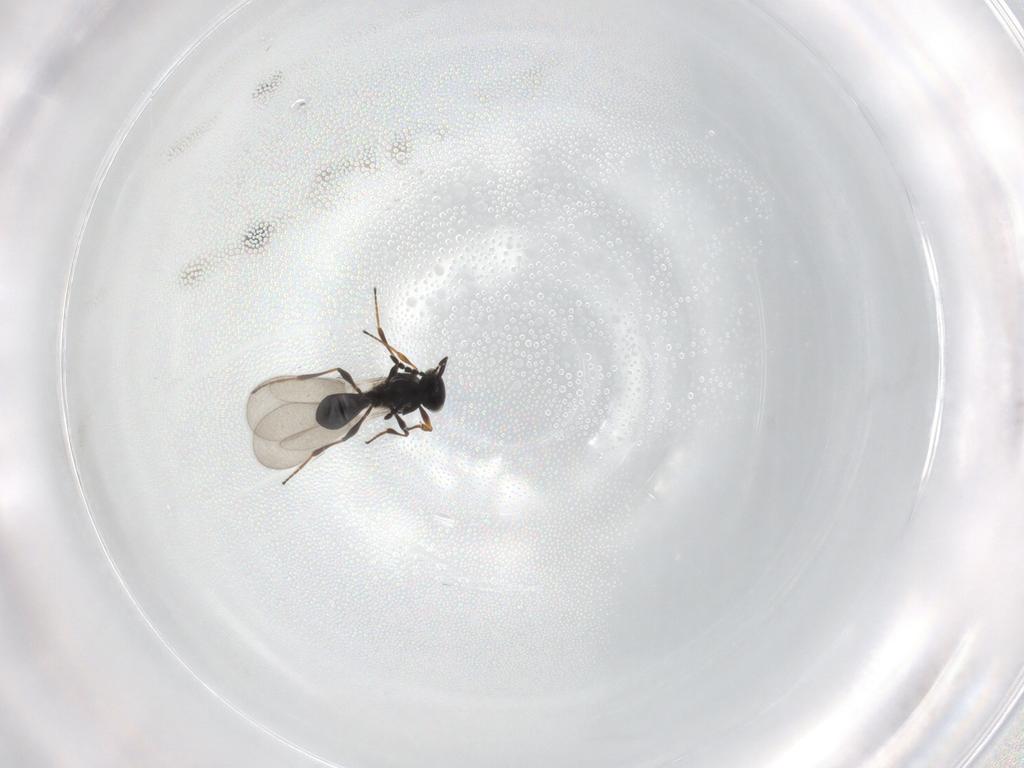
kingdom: Animalia
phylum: Arthropoda
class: Insecta
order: Hymenoptera
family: Platygastridae
